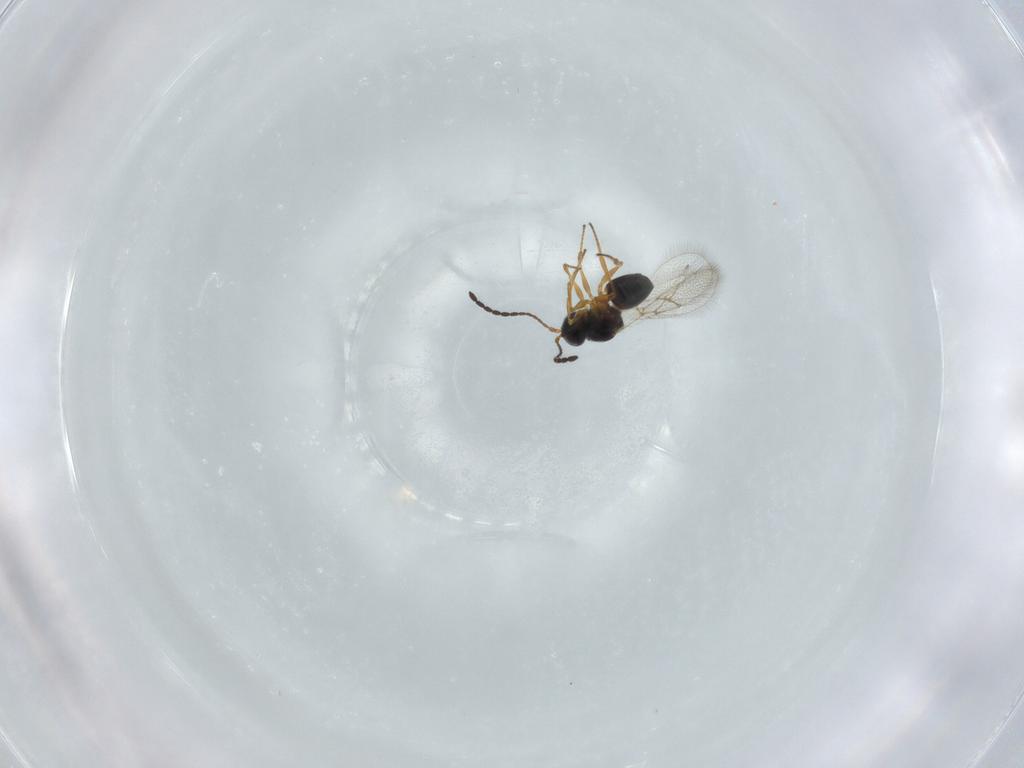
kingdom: Animalia
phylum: Arthropoda
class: Insecta
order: Hymenoptera
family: Figitidae
